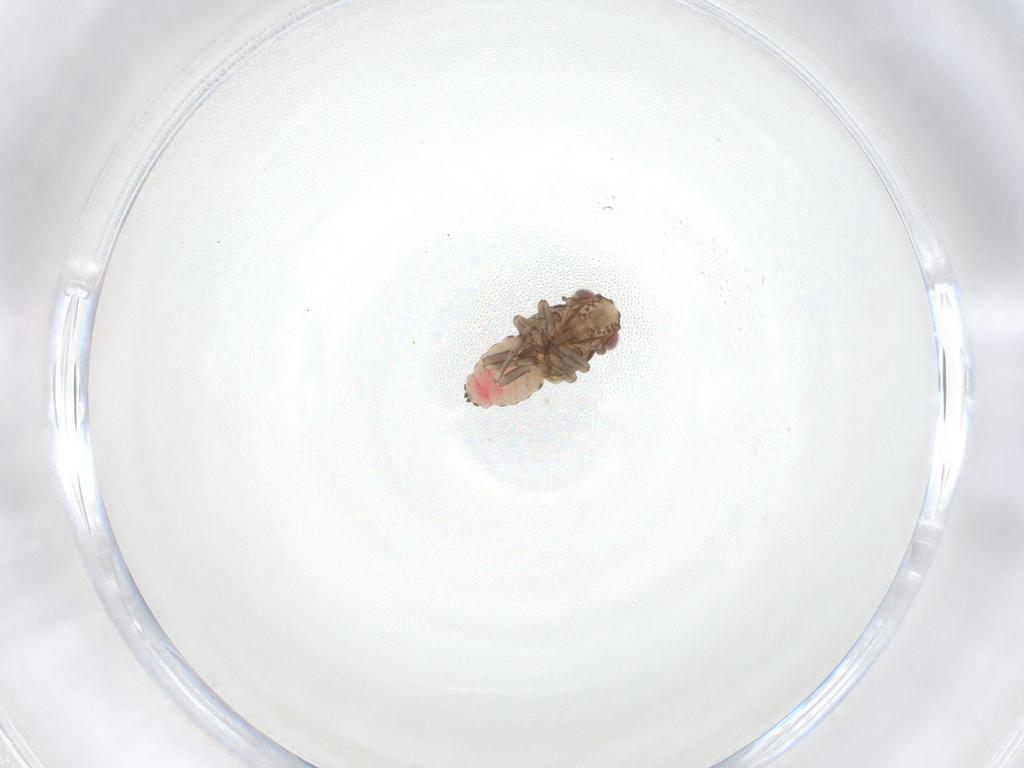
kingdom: Animalia
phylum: Arthropoda
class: Insecta
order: Hemiptera
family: Tropiduchidae
